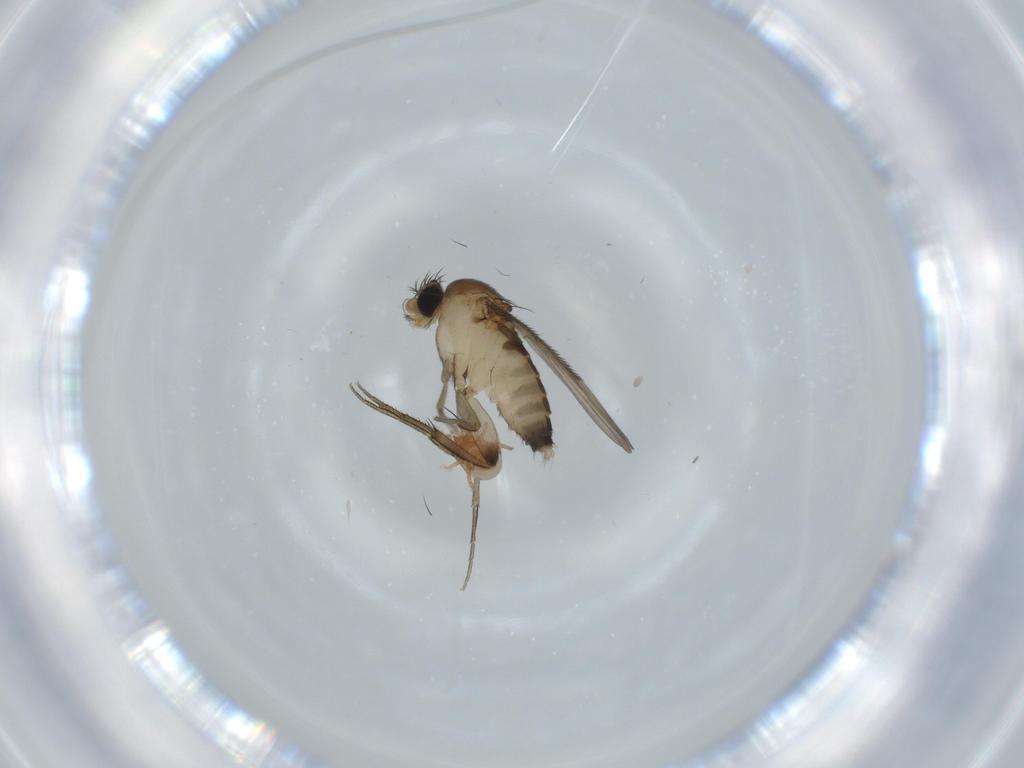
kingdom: Animalia
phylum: Arthropoda
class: Insecta
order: Diptera
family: Phoridae
